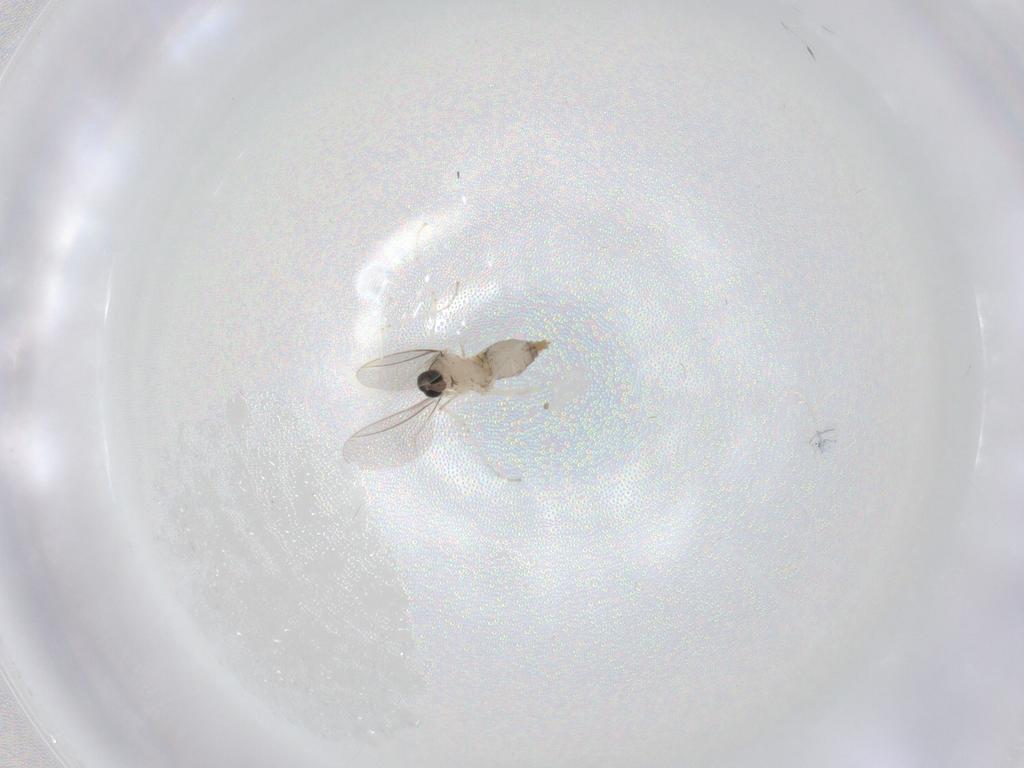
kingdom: Animalia
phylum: Arthropoda
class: Insecta
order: Diptera
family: Cecidomyiidae
